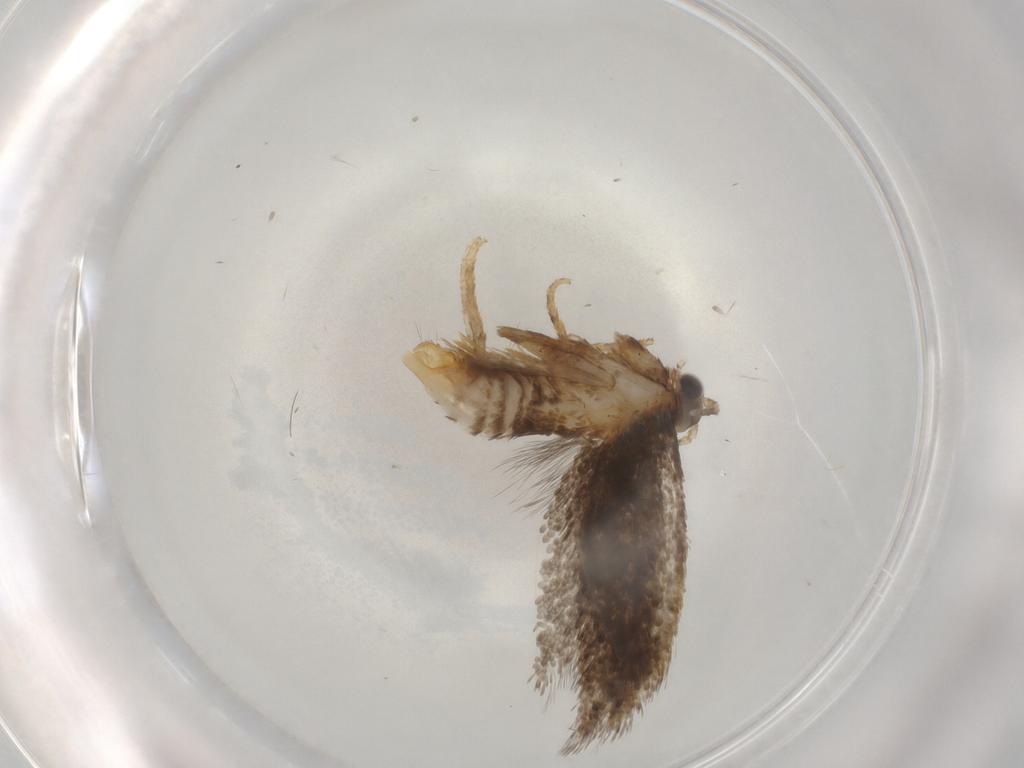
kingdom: Animalia
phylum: Arthropoda
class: Insecta
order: Lepidoptera
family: Tineidae
